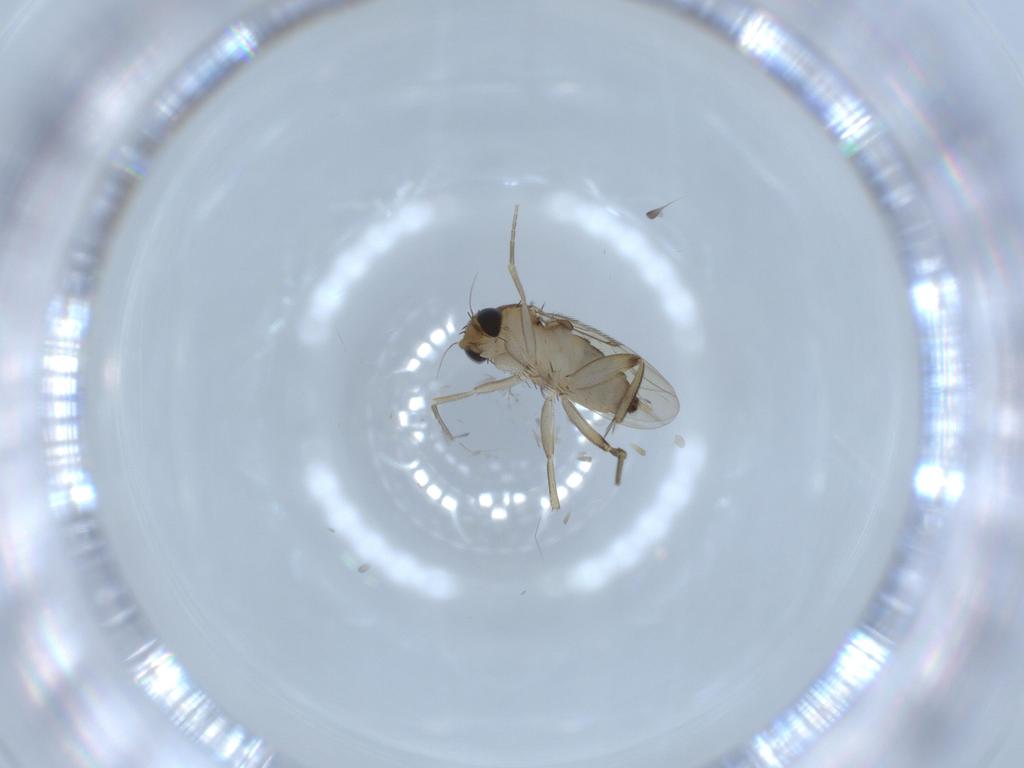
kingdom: Animalia
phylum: Arthropoda
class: Insecta
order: Diptera
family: Phoridae
